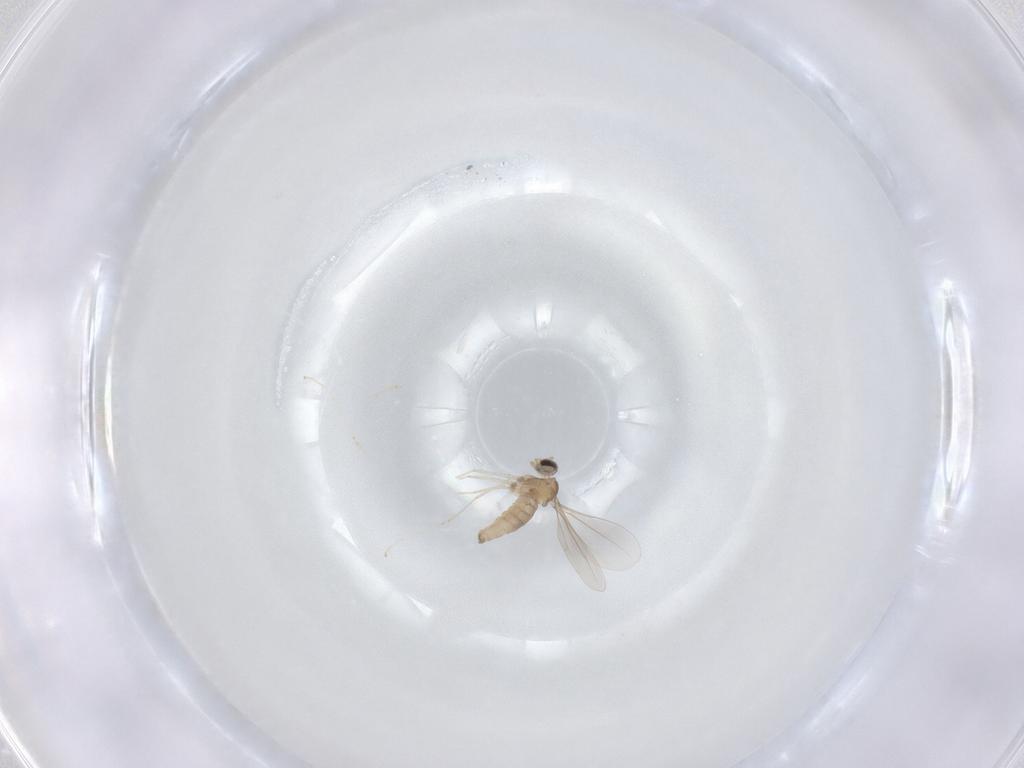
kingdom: Animalia
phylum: Arthropoda
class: Insecta
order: Diptera
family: Cecidomyiidae
